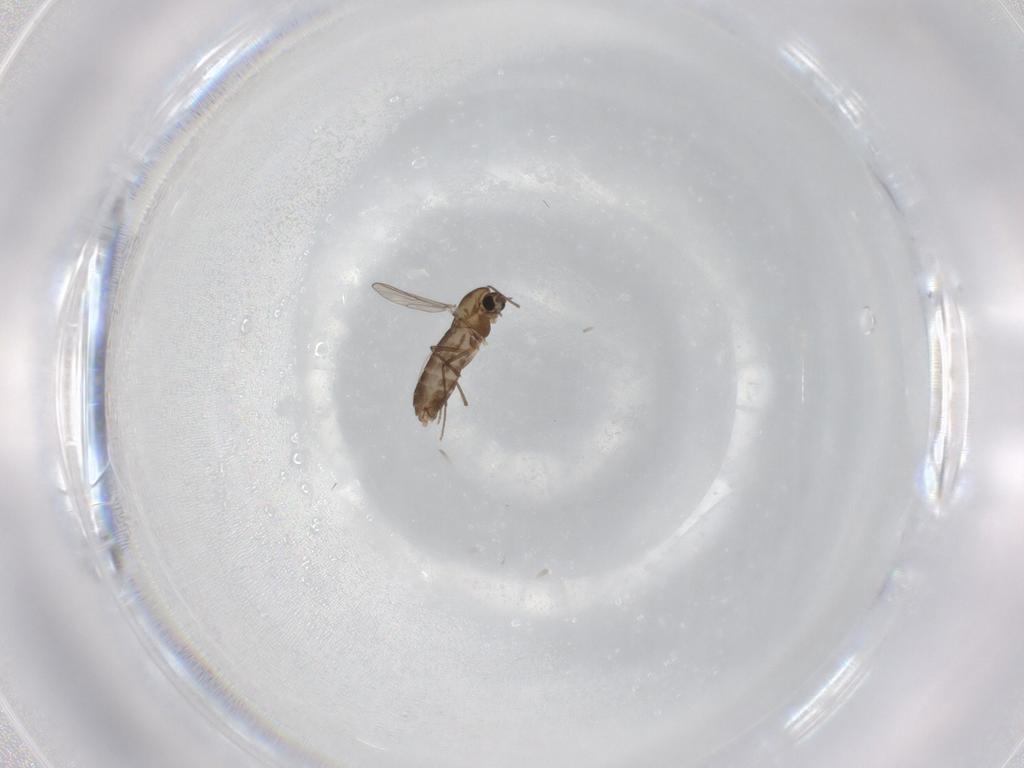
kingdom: Animalia
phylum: Arthropoda
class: Insecta
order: Diptera
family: Chironomidae
